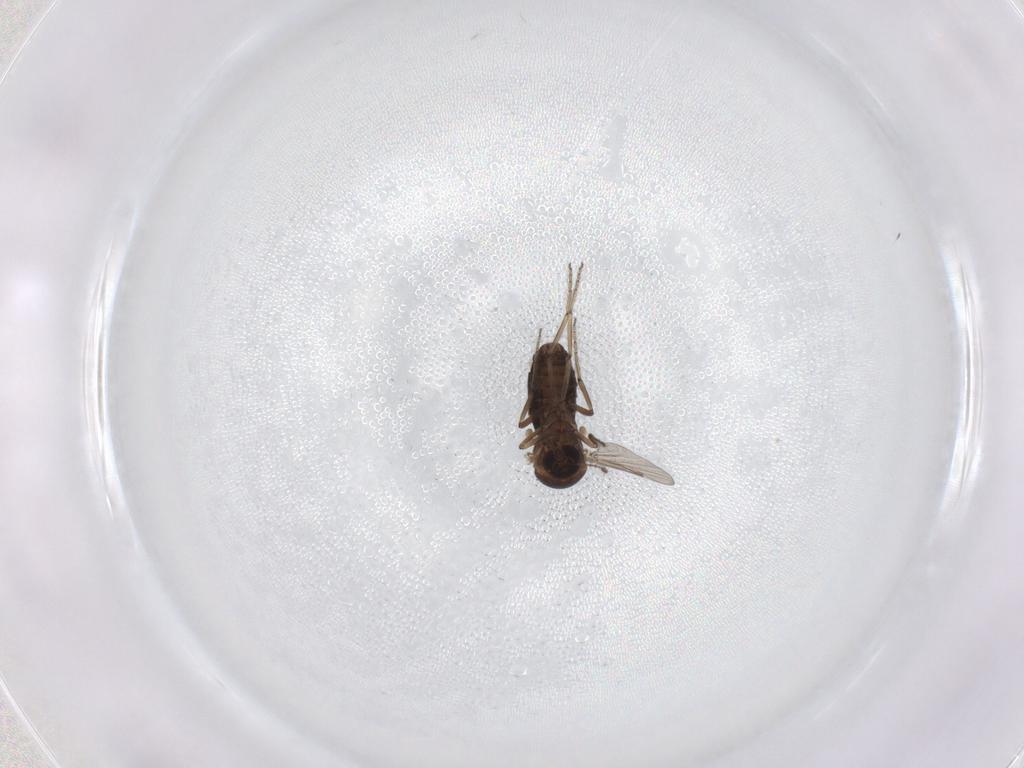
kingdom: Animalia
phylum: Arthropoda
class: Insecta
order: Diptera
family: Ceratopogonidae
